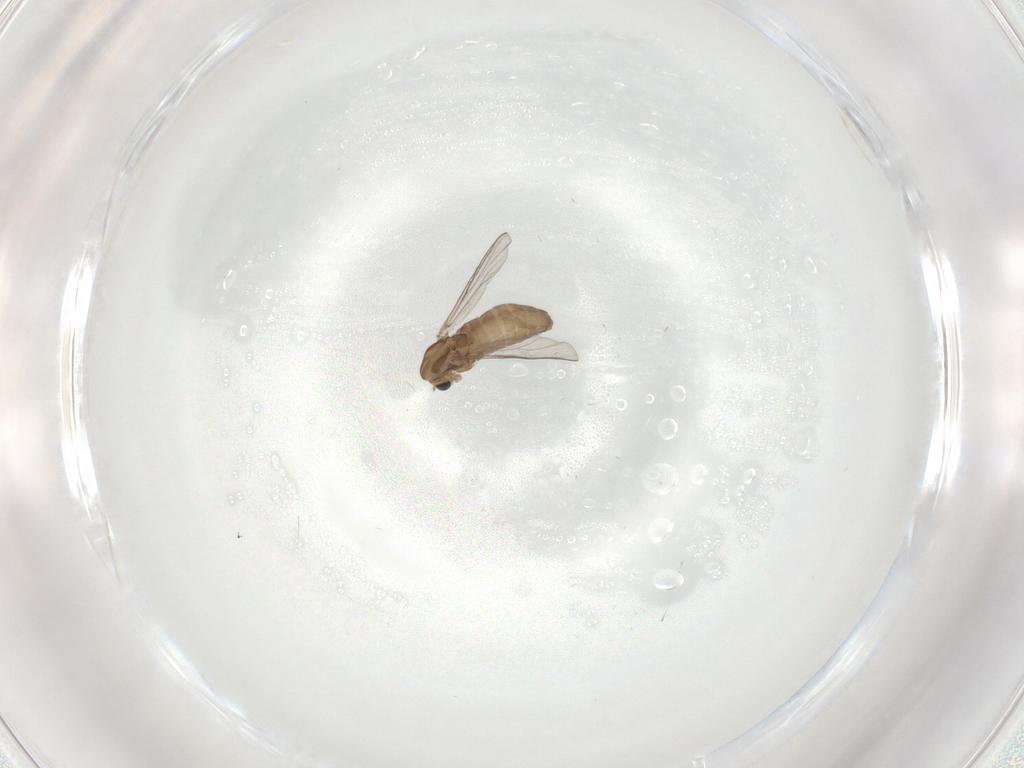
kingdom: Animalia
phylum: Arthropoda
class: Insecta
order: Diptera
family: Chironomidae
